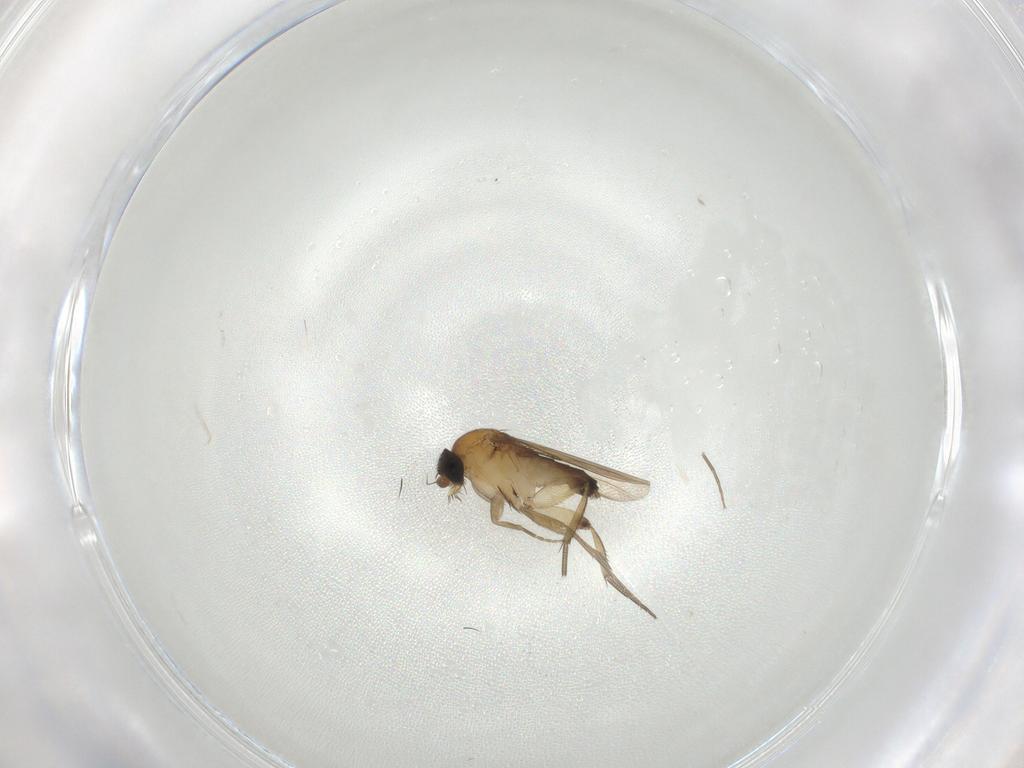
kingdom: Animalia
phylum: Arthropoda
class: Insecta
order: Diptera
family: Phoridae
